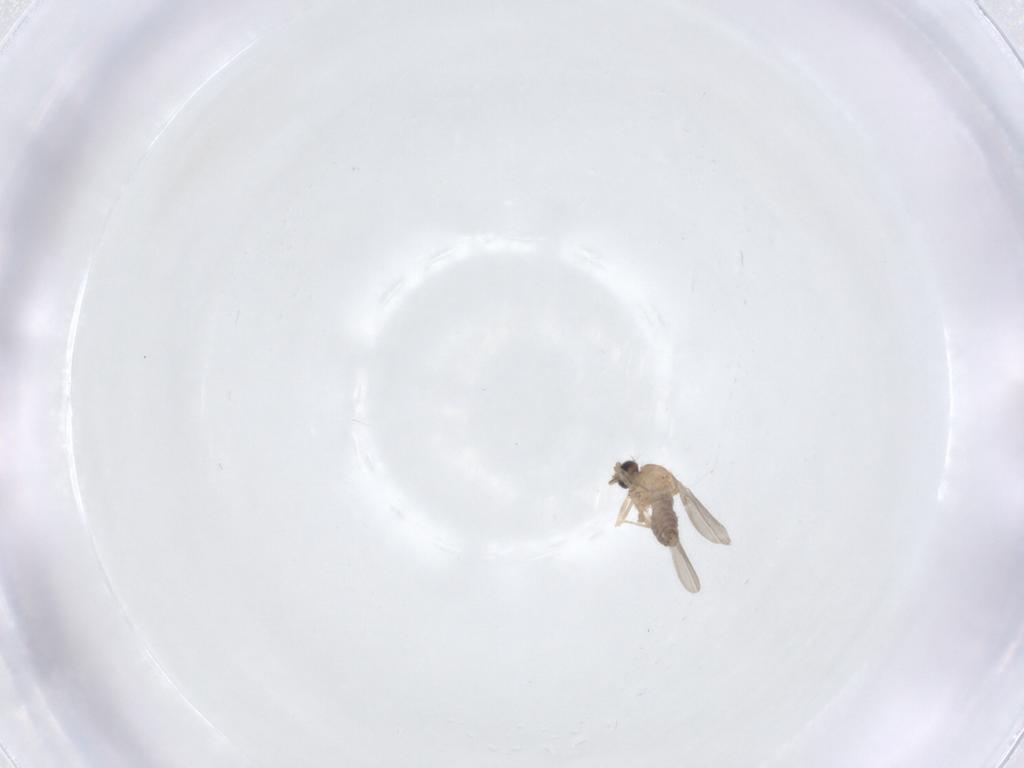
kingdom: Animalia
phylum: Arthropoda
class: Insecta
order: Diptera
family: Ceratopogonidae
